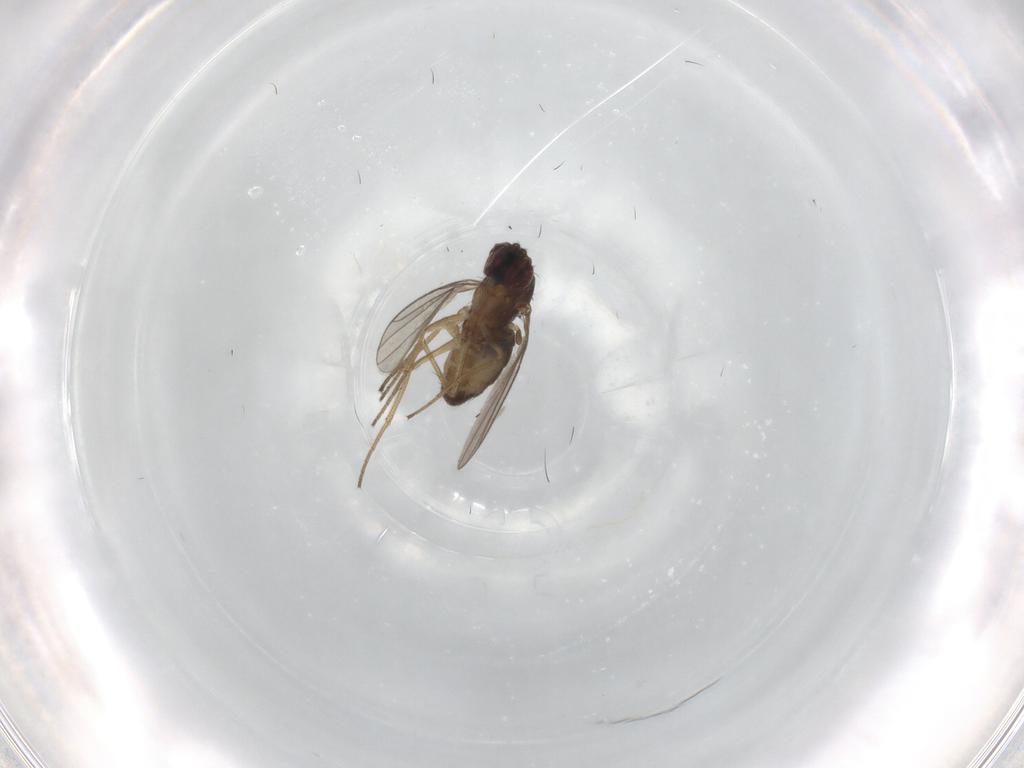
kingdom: Animalia
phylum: Arthropoda
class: Insecta
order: Diptera
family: Dolichopodidae
